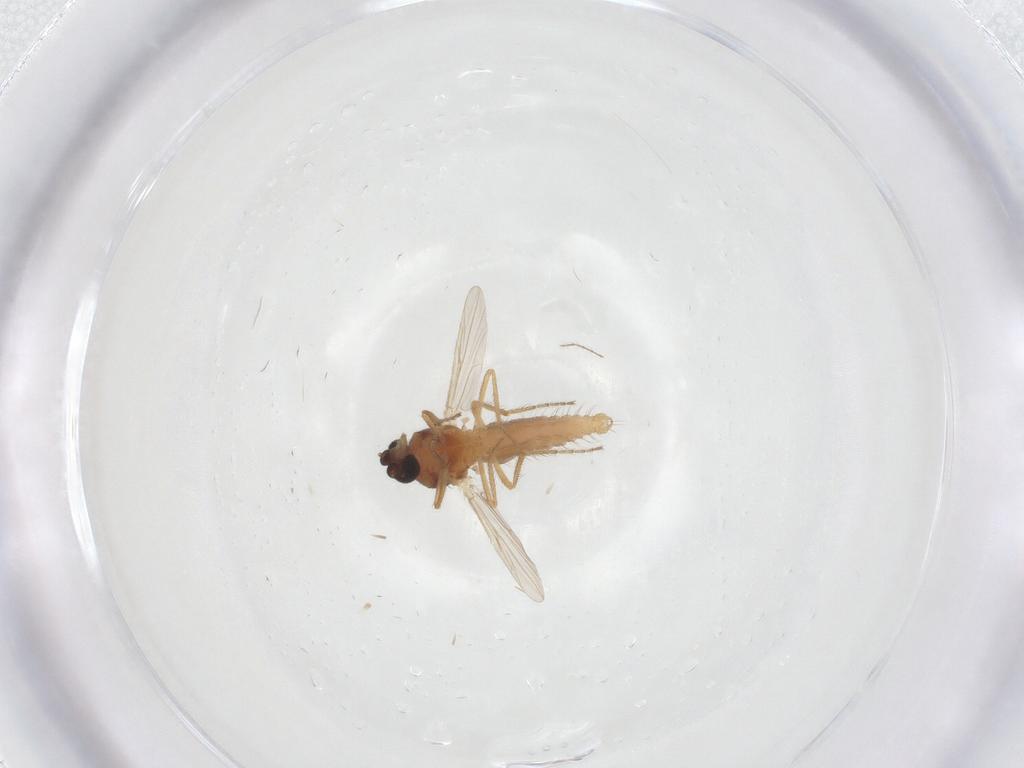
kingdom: Animalia
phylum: Arthropoda
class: Insecta
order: Diptera
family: Ceratopogonidae
